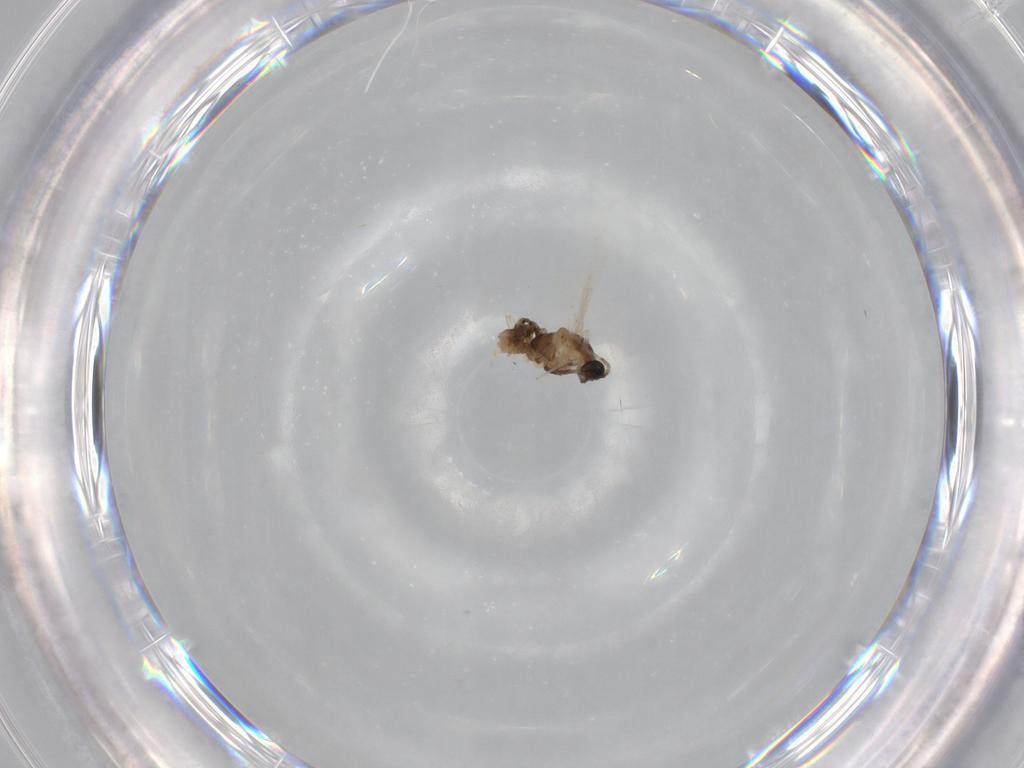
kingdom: Animalia
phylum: Arthropoda
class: Insecta
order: Diptera
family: Cecidomyiidae
